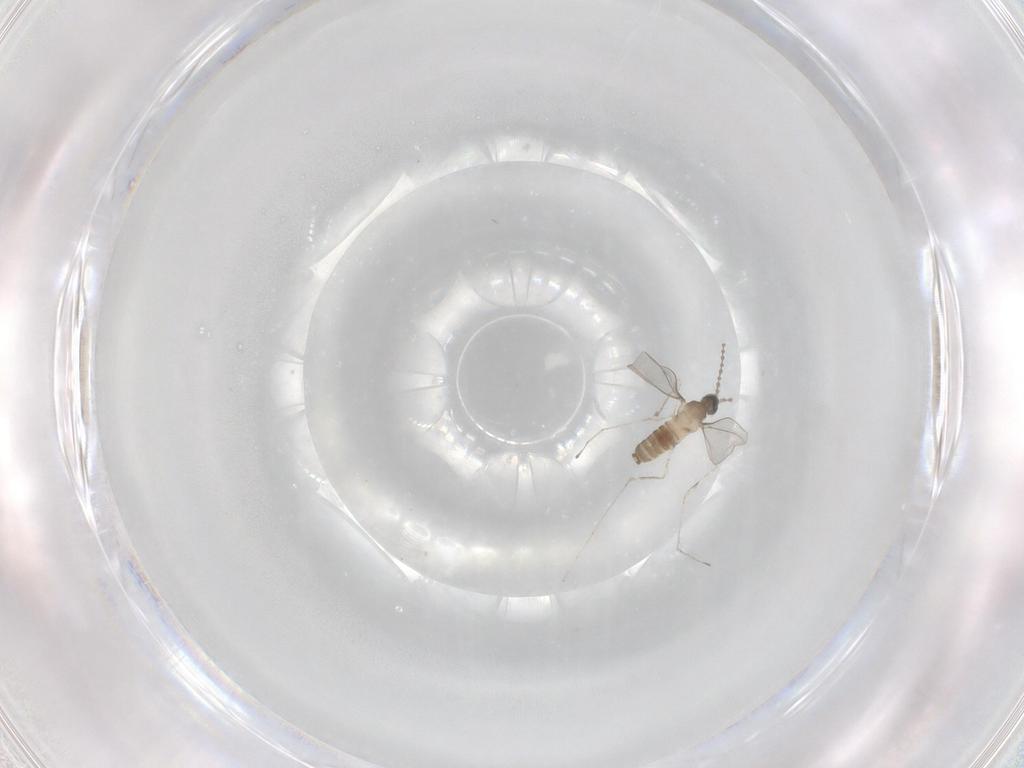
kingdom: Animalia
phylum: Arthropoda
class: Insecta
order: Diptera
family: Cecidomyiidae
